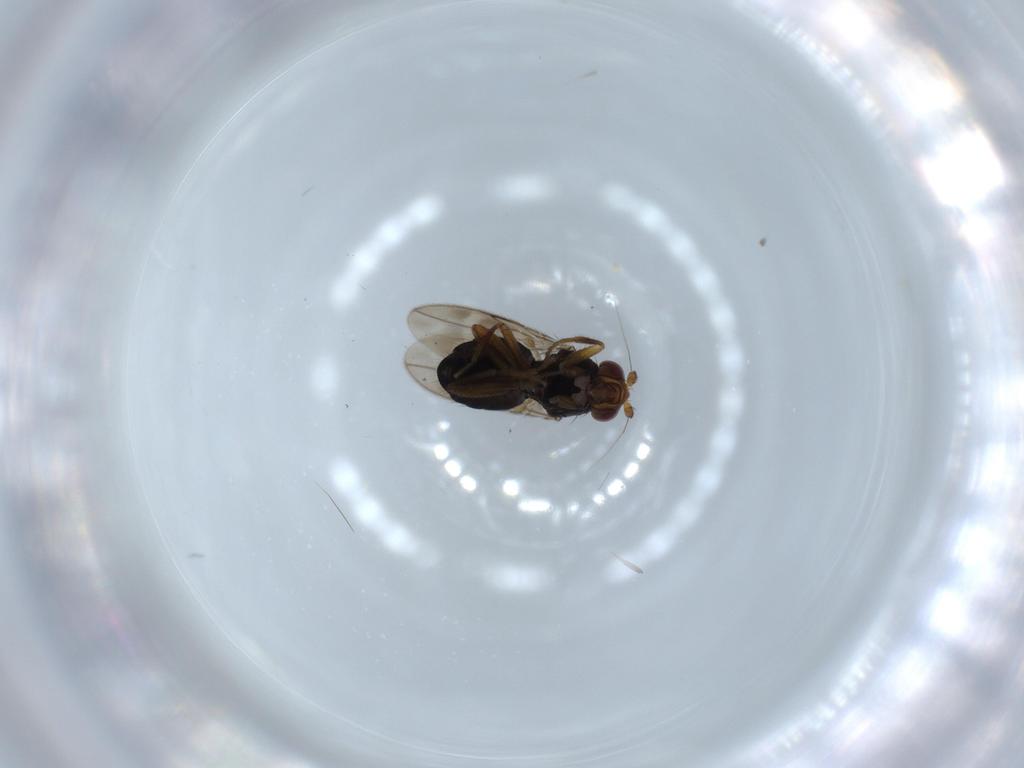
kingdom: Animalia
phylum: Arthropoda
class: Insecta
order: Diptera
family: Sphaeroceridae
